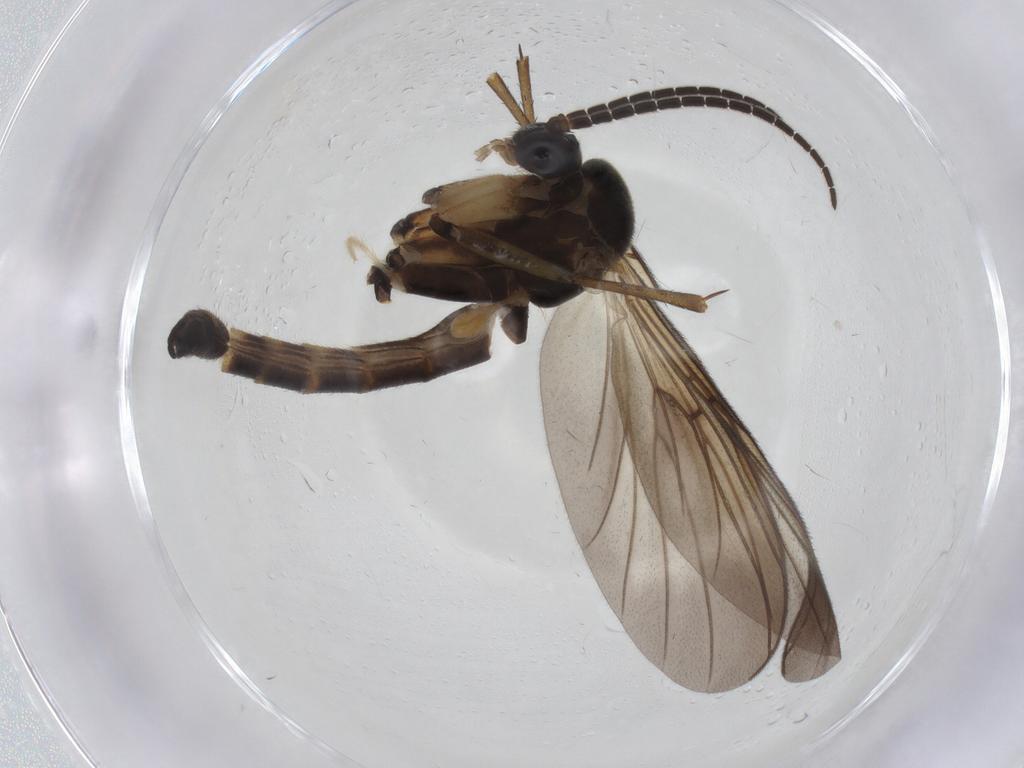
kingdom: Animalia
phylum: Arthropoda
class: Insecta
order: Diptera
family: Mycetophilidae
